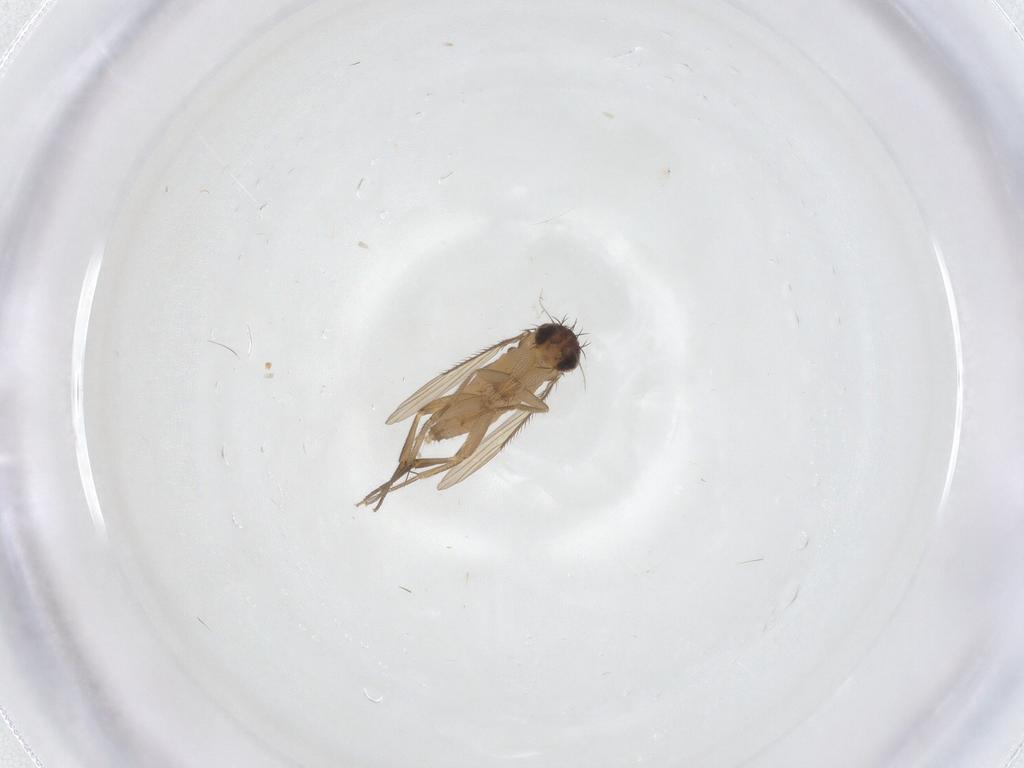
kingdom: Animalia
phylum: Arthropoda
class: Insecta
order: Diptera
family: Phoridae
